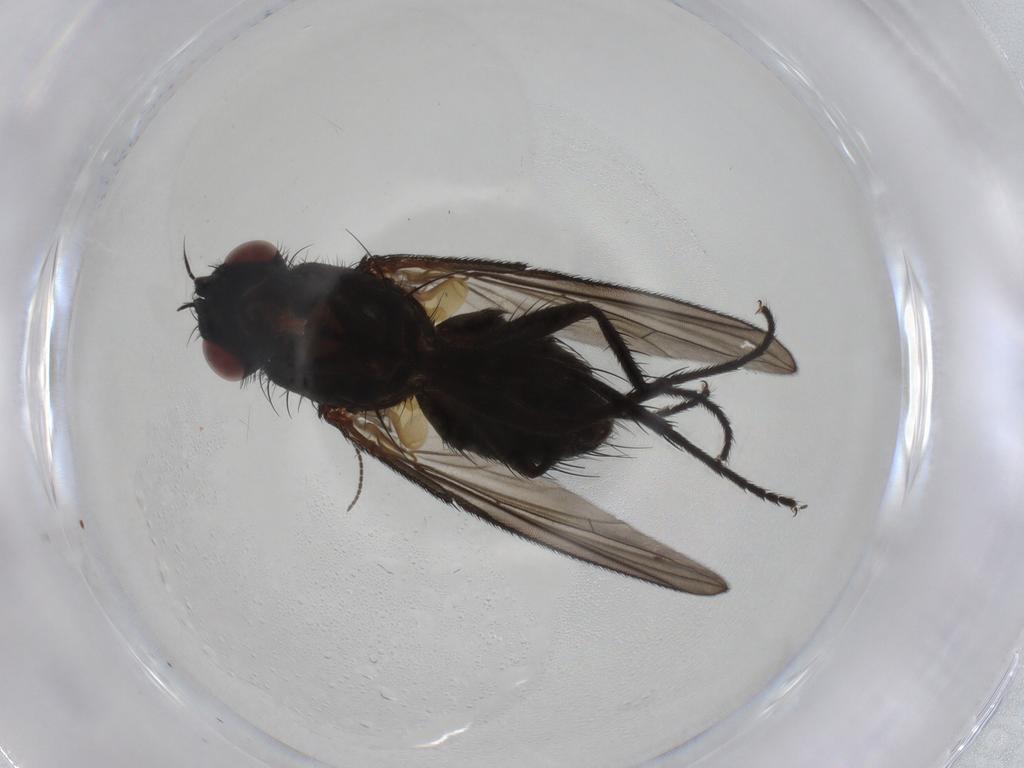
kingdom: Animalia
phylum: Arthropoda
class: Insecta
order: Diptera
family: Tachinidae
